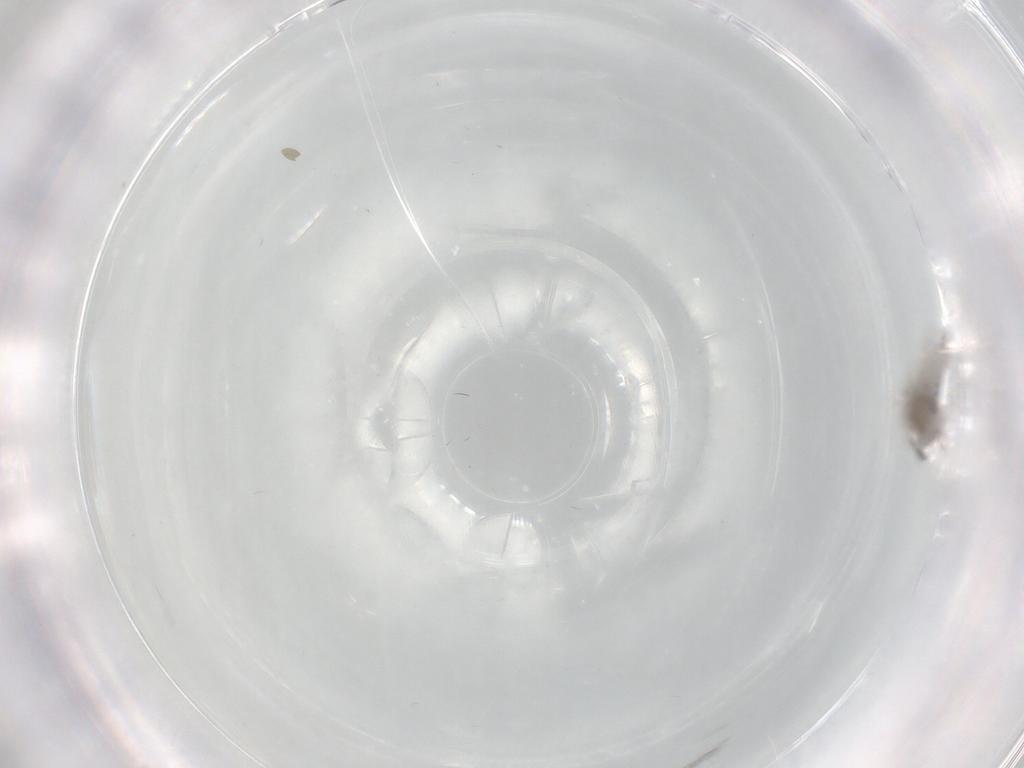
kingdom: Animalia
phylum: Arthropoda
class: Insecta
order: Diptera
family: Cecidomyiidae
